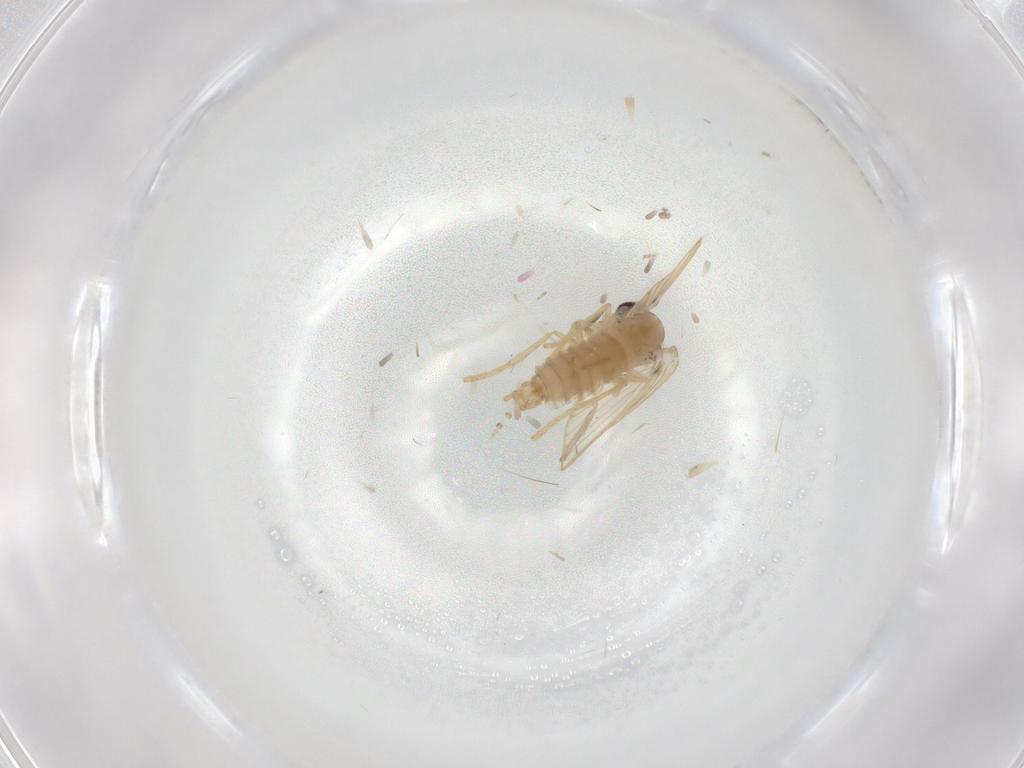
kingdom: Animalia
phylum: Arthropoda
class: Insecta
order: Diptera
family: Psychodidae
